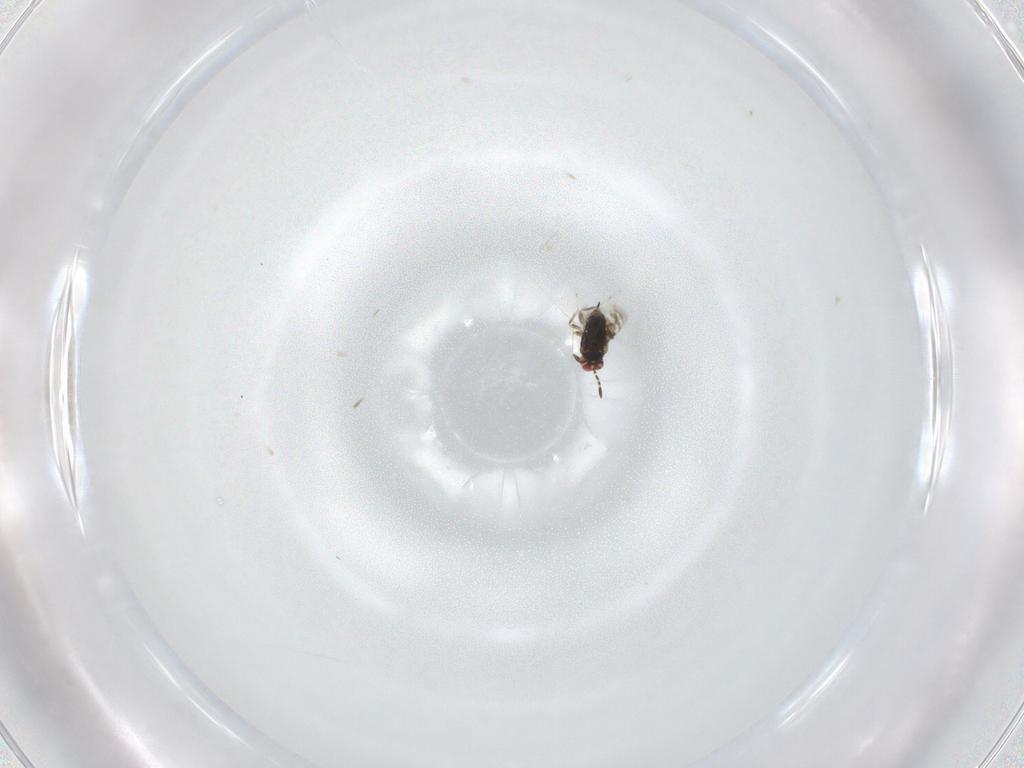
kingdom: Animalia
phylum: Arthropoda
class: Insecta
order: Hymenoptera
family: Azotidae
